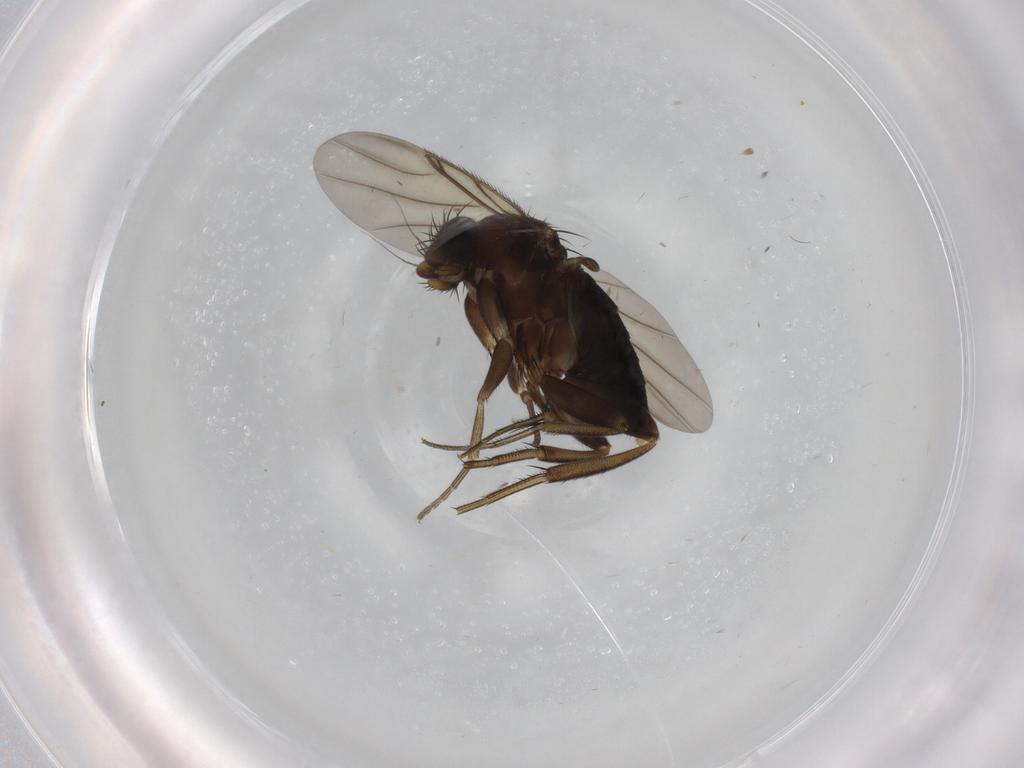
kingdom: Animalia
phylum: Arthropoda
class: Insecta
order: Diptera
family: Phoridae
